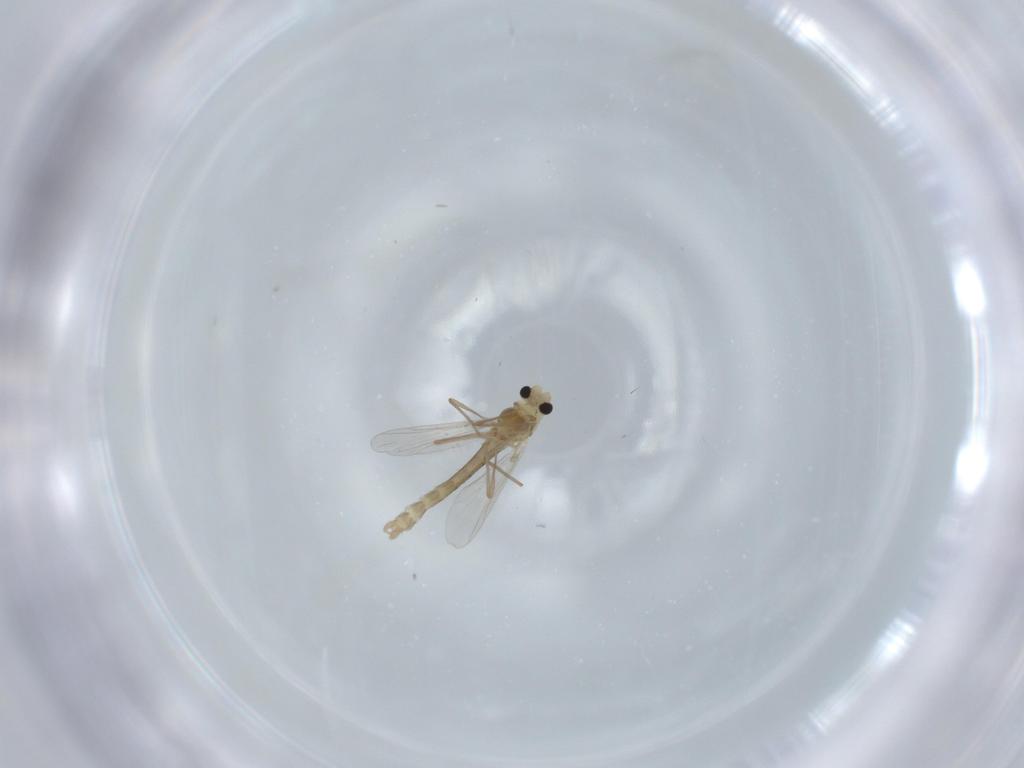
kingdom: Animalia
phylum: Arthropoda
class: Insecta
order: Diptera
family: Chironomidae
